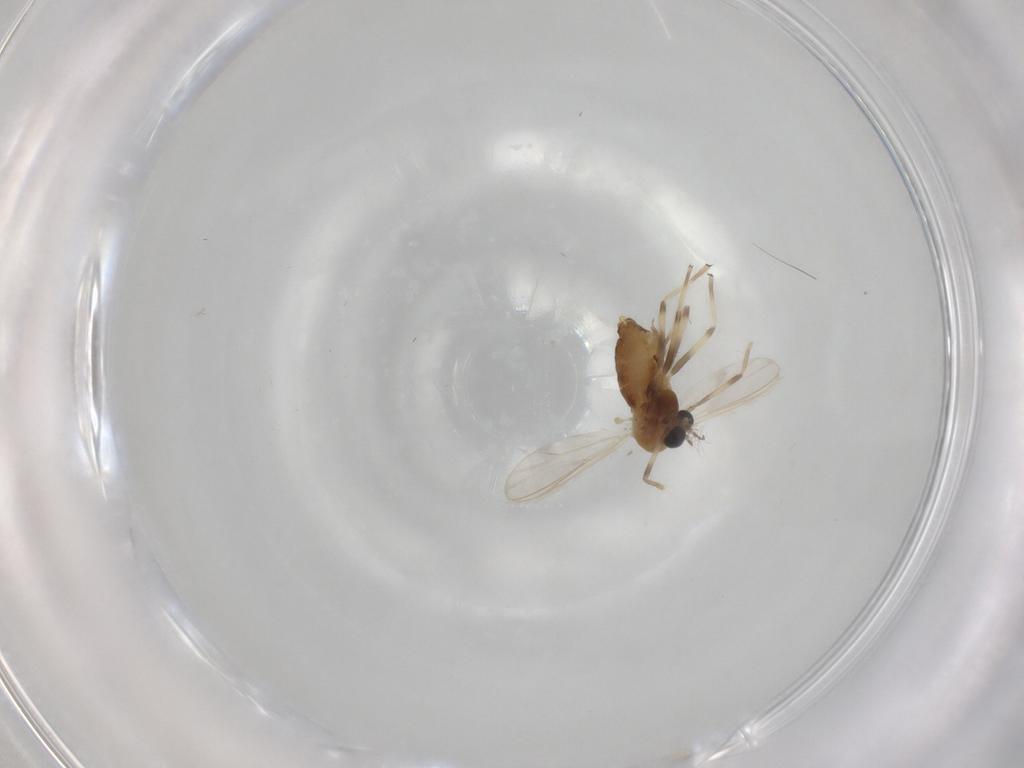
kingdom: Animalia
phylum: Arthropoda
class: Insecta
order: Diptera
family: Chironomidae
